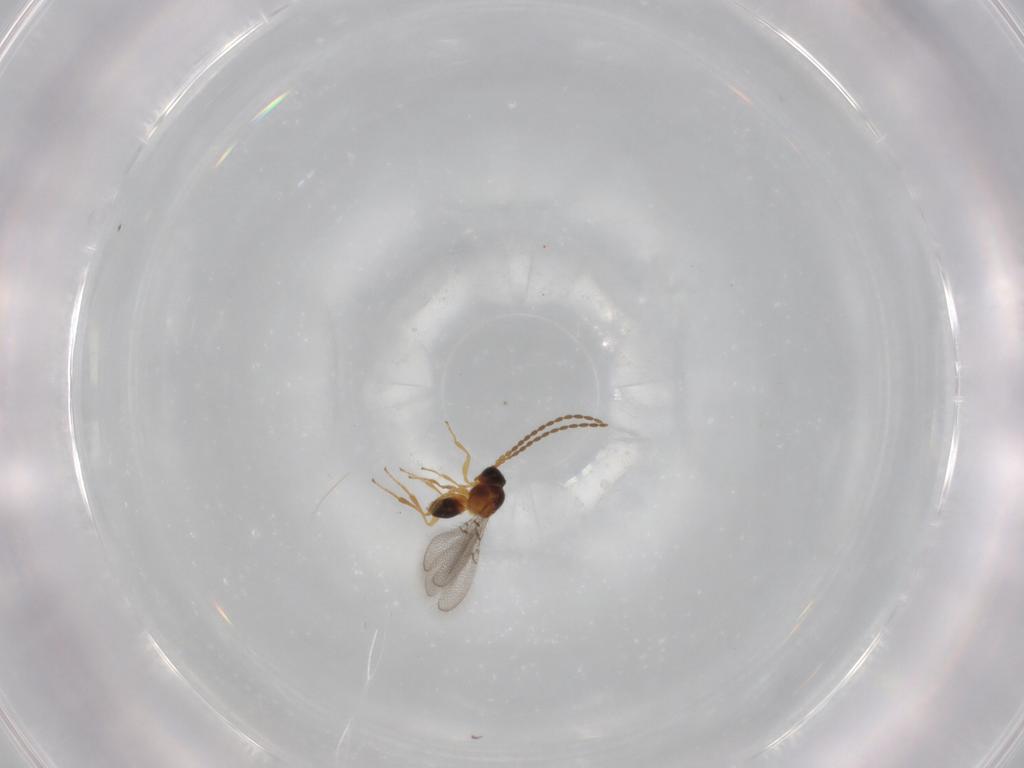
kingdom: Animalia
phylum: Arthropoda
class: Insecta
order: Hymenoptera
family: Figitidae
